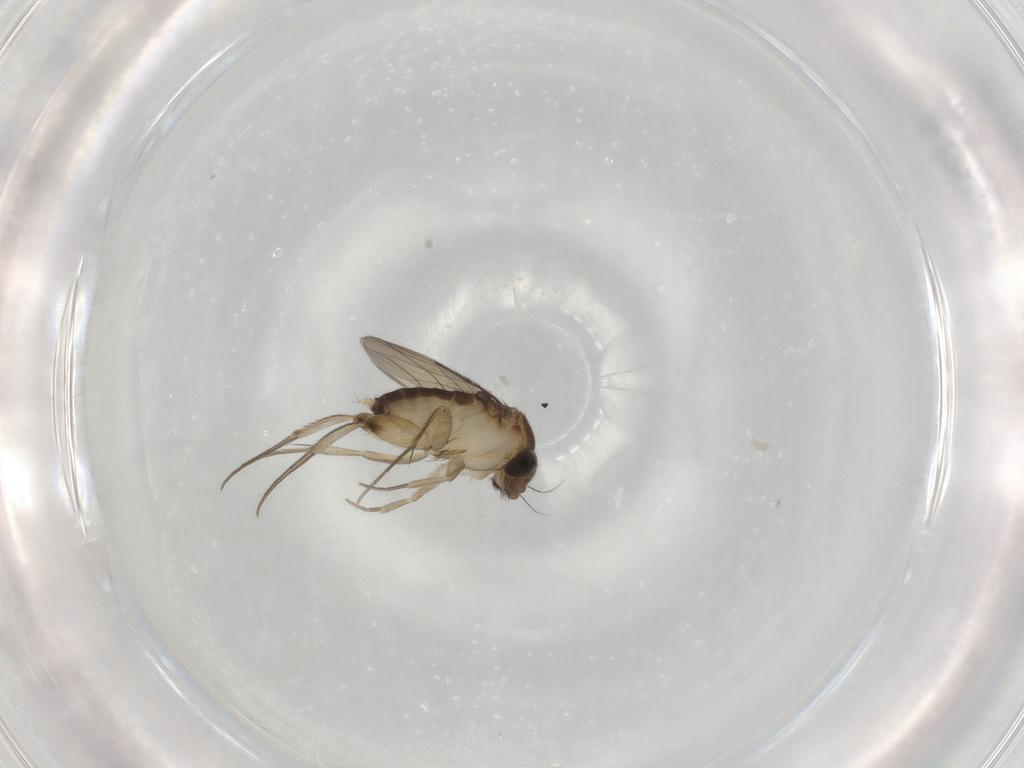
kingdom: Animalia
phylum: Arthropoda
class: Insecta
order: Diptera
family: Phoridae
